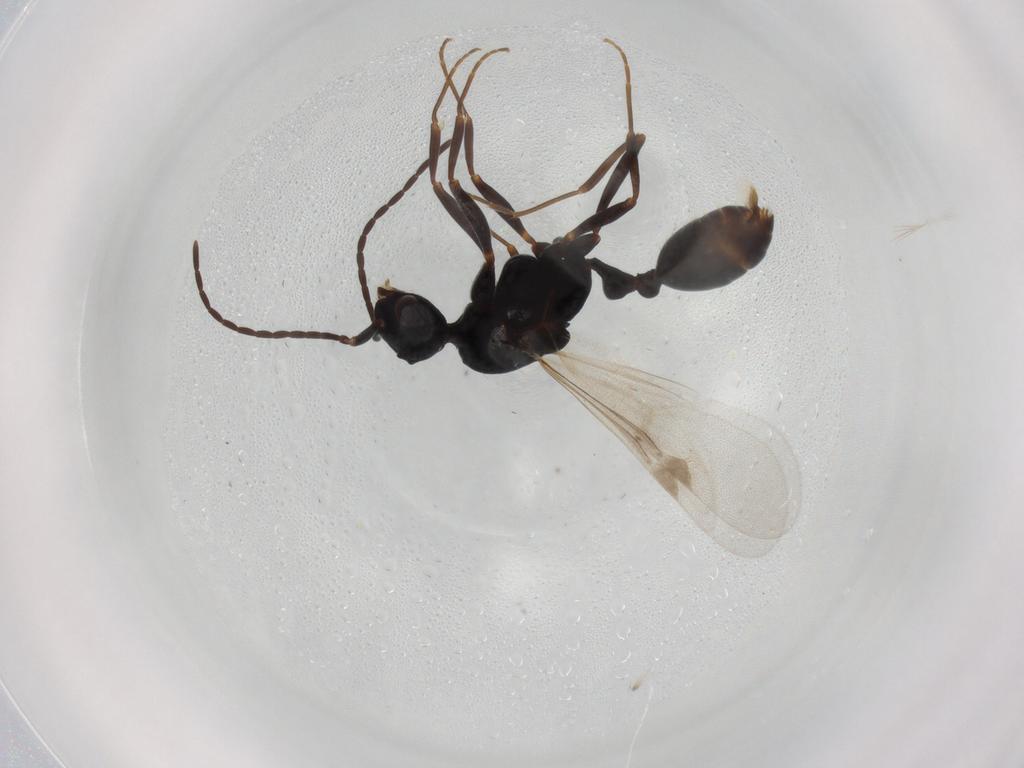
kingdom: Animalia
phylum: Arthropoda
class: Insecta
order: Hymenoptera
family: Formicidae
